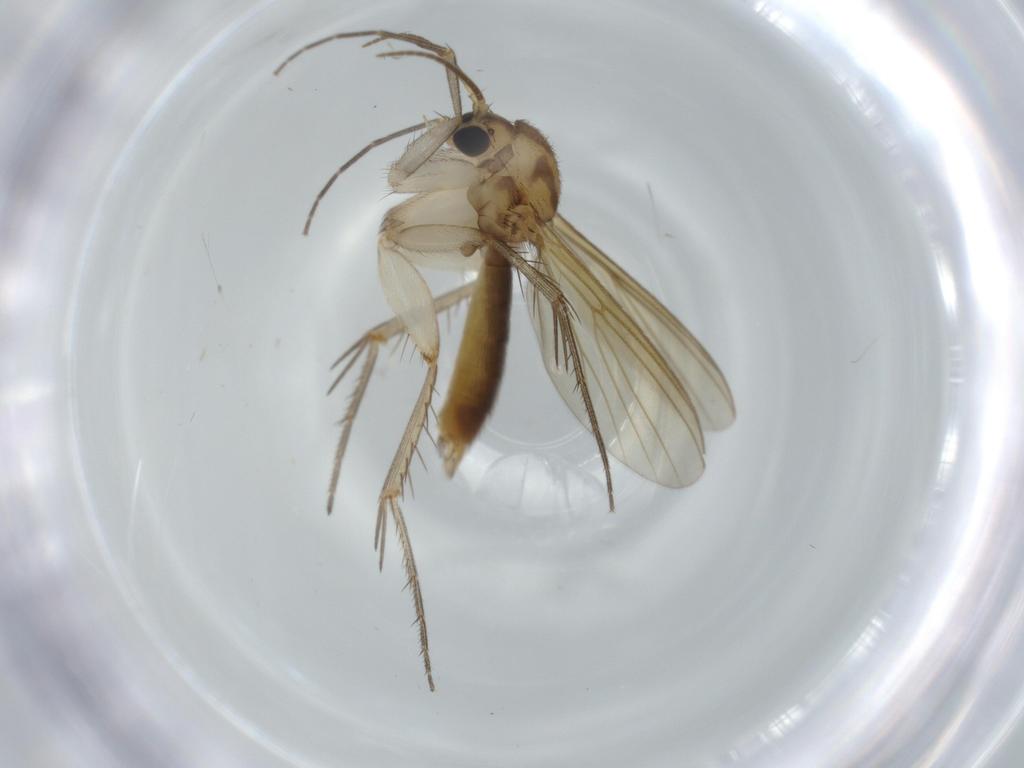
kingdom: Animalia
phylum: Arthropoda
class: Insecta
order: Diptera
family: Mycetophilidae
